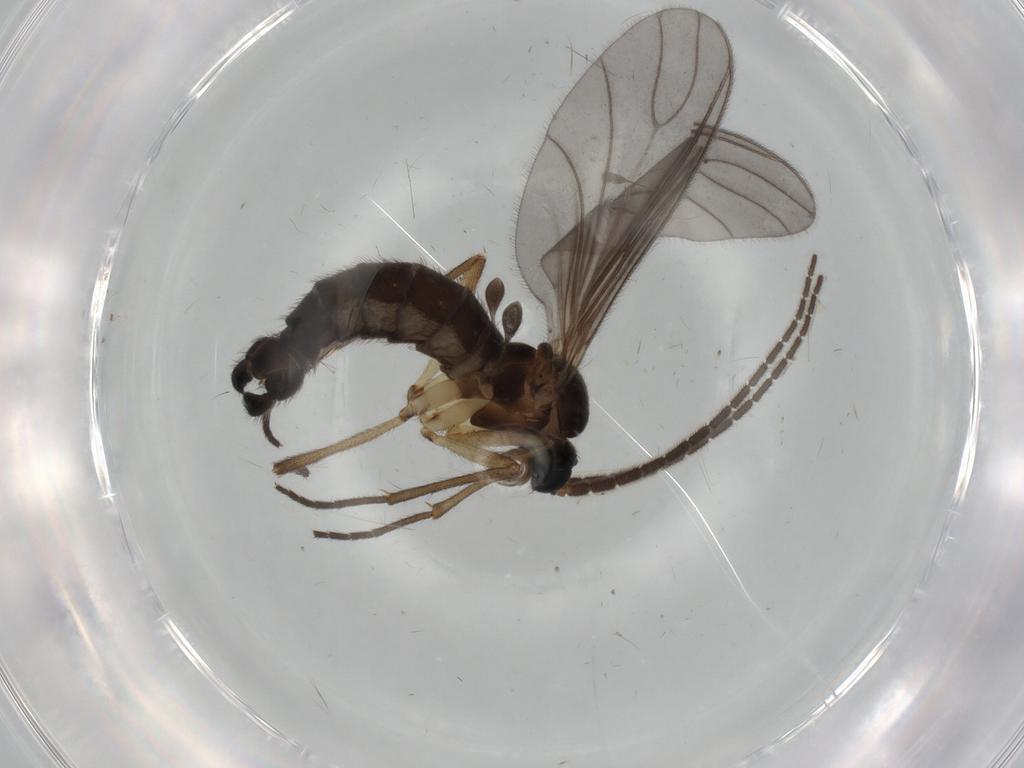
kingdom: Animalia
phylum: Arthropoda
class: Insecta
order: Diptera
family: Sciaridae
